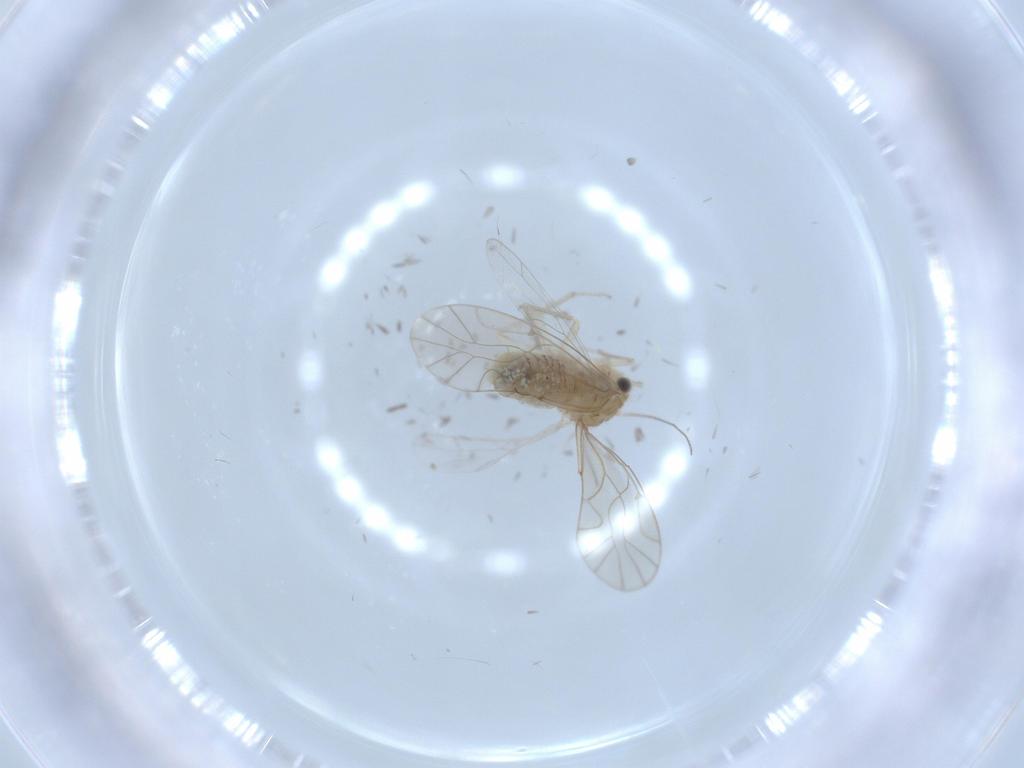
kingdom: Animalia
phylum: Arthropoda
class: Insecta
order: Psocodea
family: Lachesillidae
